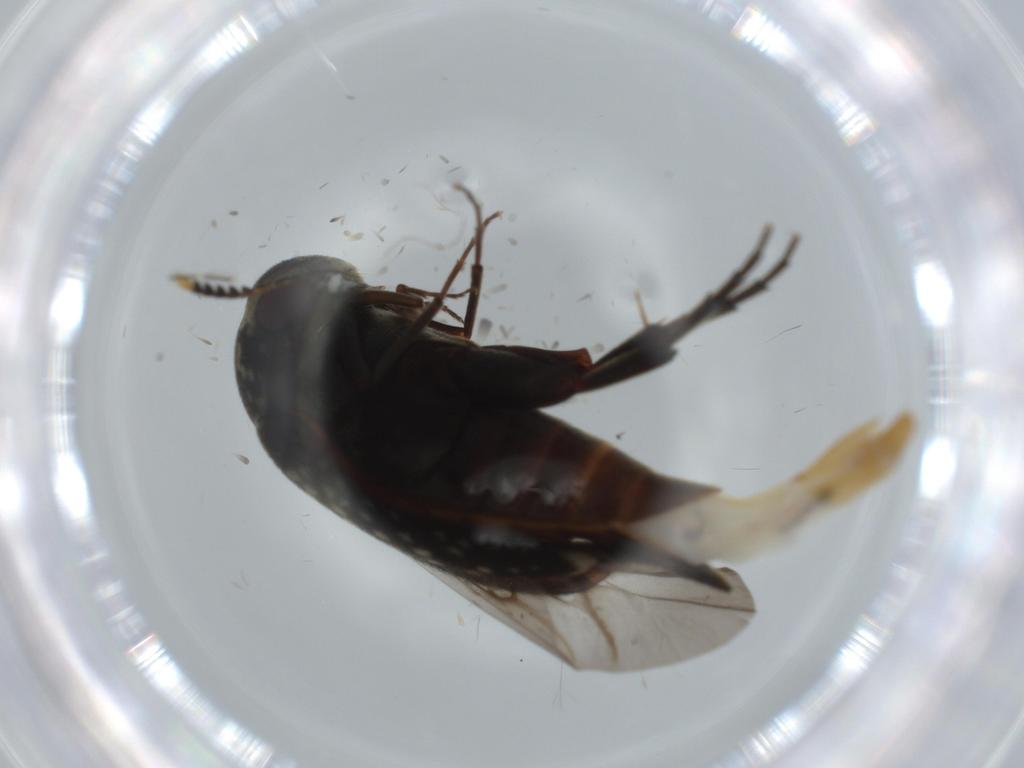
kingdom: Animalia
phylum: Arthropoda
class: Insecta
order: Coleoptera
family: Mordellidae
